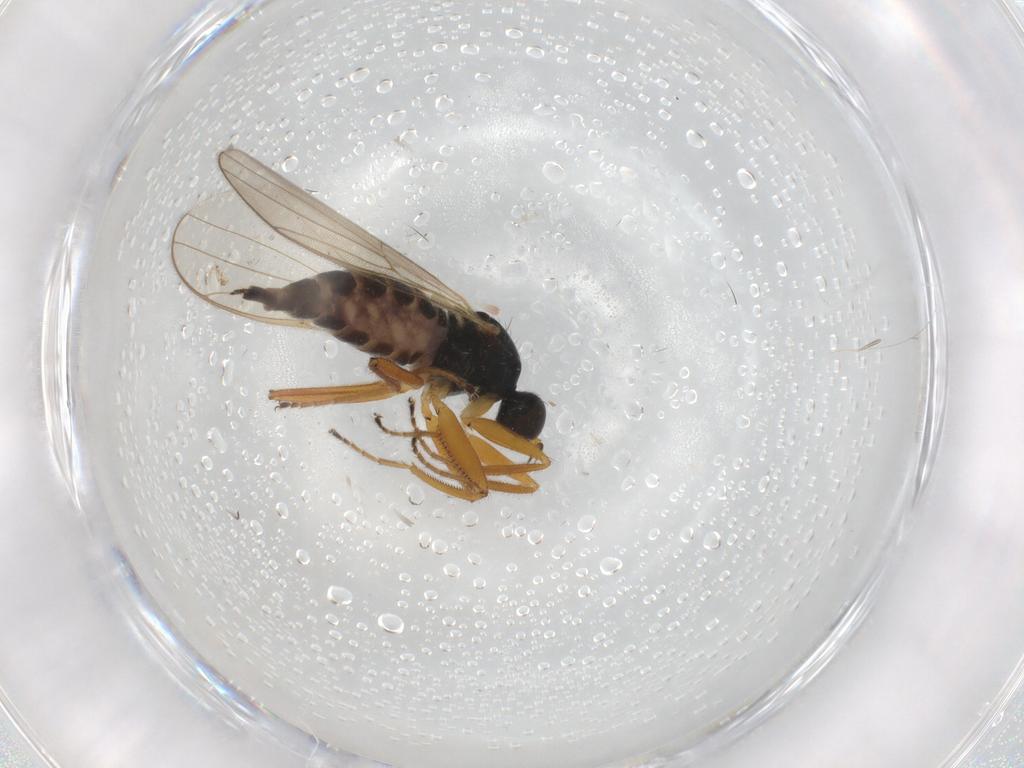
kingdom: Animalia
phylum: Arthropoda
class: Insecta
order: Diptera
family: Hybotidae
